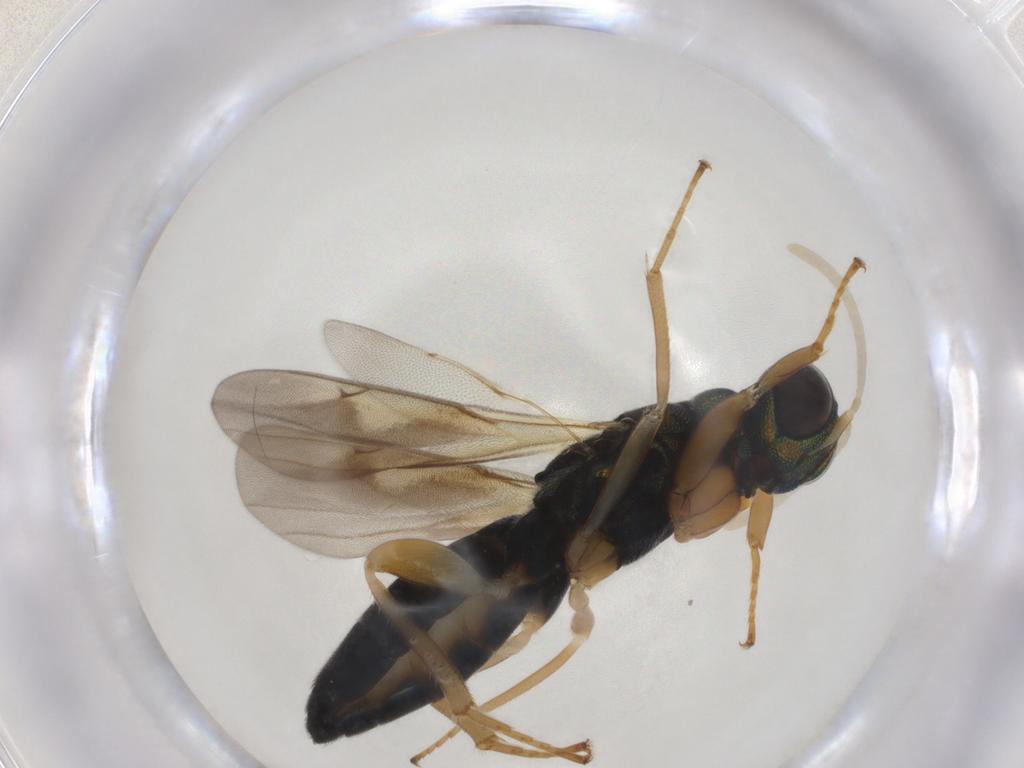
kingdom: Animalia
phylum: Arthropoda
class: Insecta
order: Hymenoptera
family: Lyciscidae
